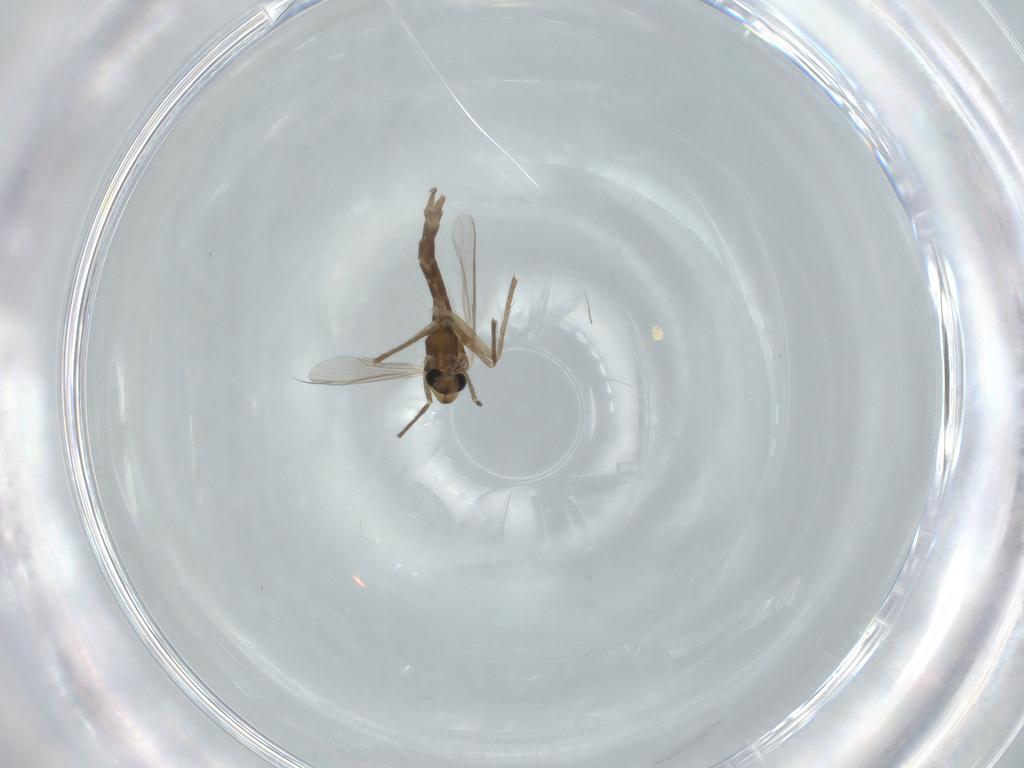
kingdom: Animalia
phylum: Arthropoda
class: Insecta
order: Diptera
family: Chironomidae
